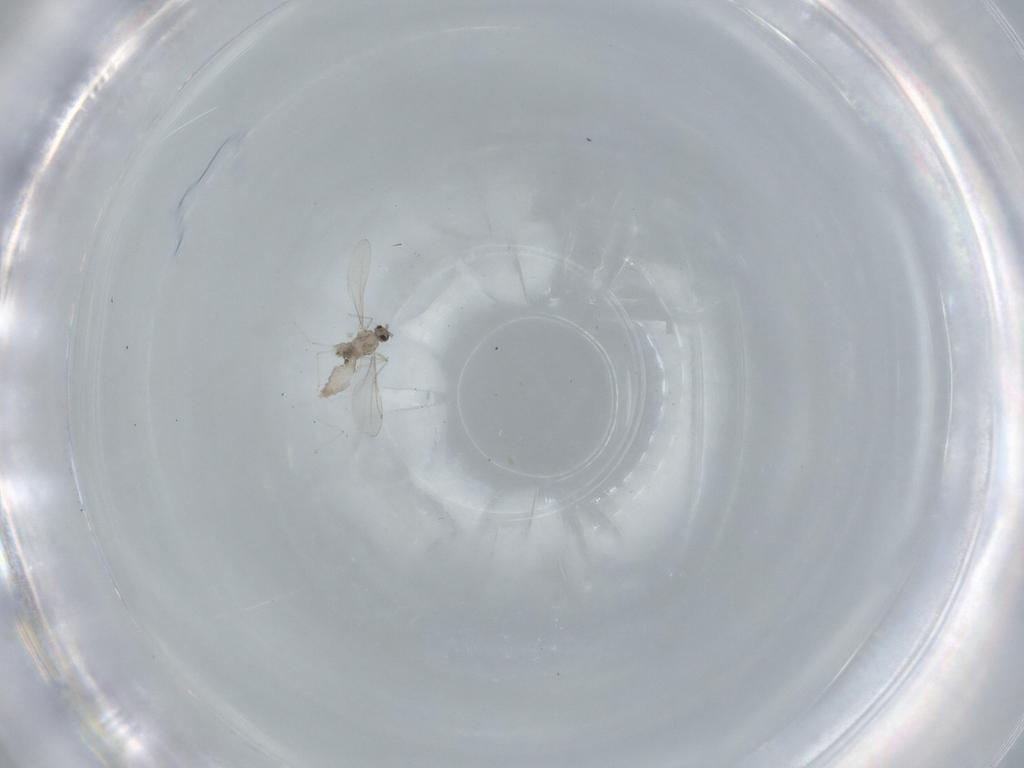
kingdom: Animalia
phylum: Arthropoda
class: Insecta
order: Diptera
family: Cecidomyiidae
